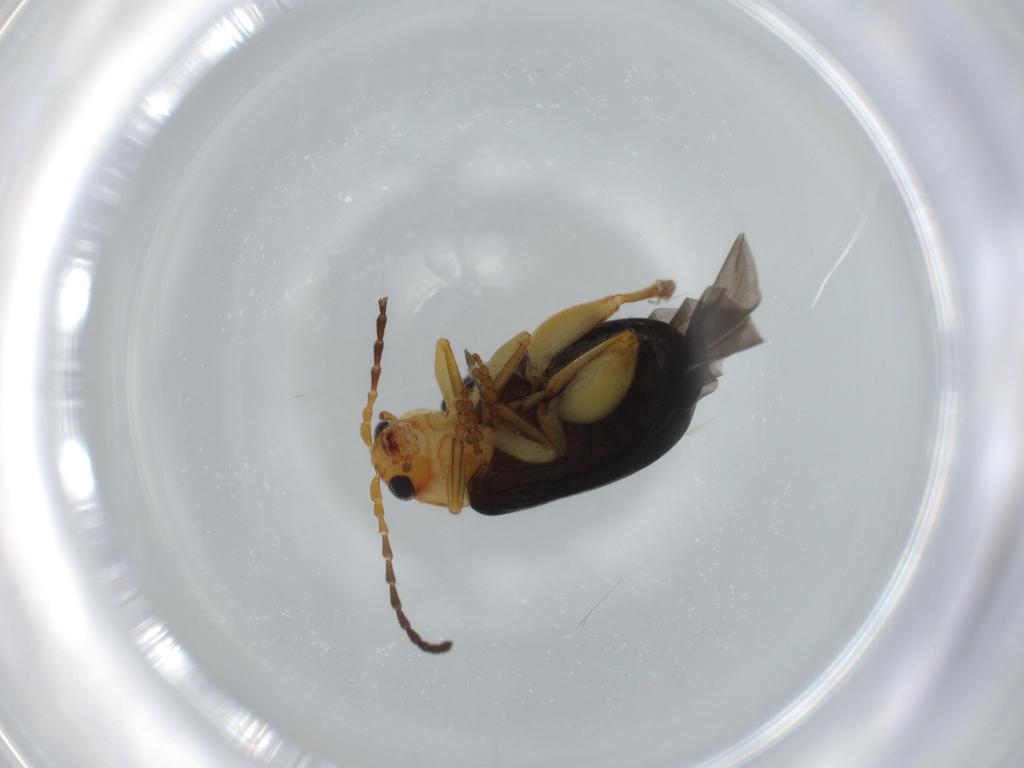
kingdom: Animalia
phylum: Arthropoda
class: Insecta
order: Coleoptera
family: Chrysomelidae
